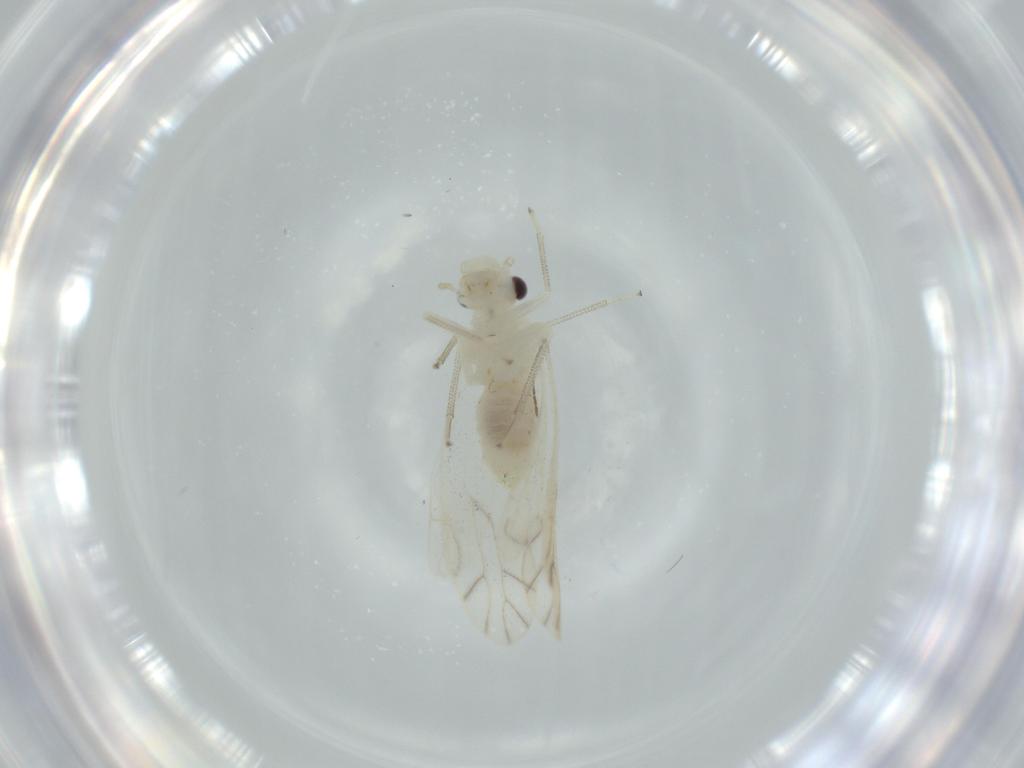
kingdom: Animalia
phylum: Arthropoda
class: Insecta
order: Psocodea
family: Caeciliusidae
